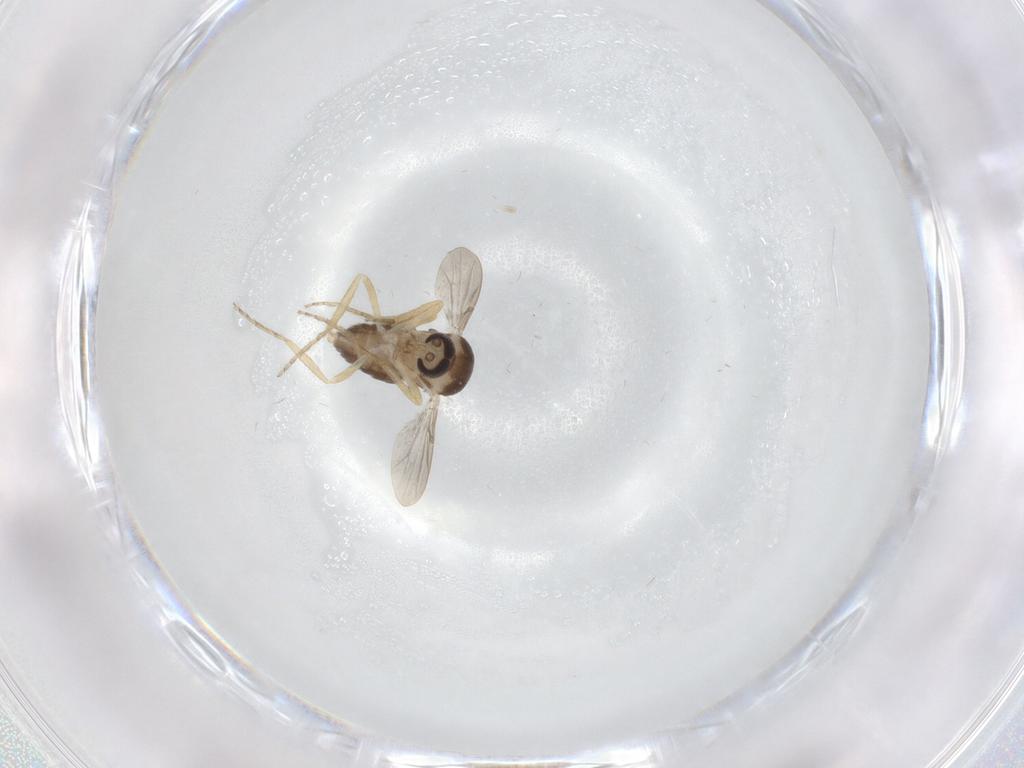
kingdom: Animalia
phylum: Arthropoda
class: Insecta
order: Diptera
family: Ceratopogonidae
